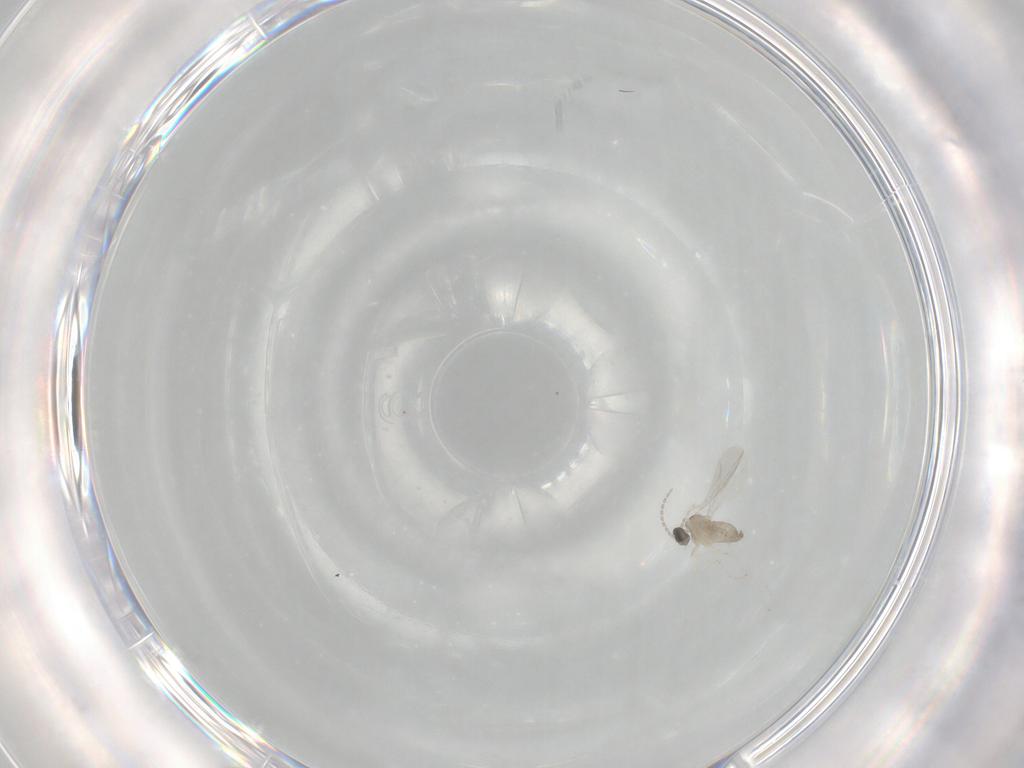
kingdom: Animalia
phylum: Arthropoda
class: Insecta
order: Diptera
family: Cecidomyiidae
